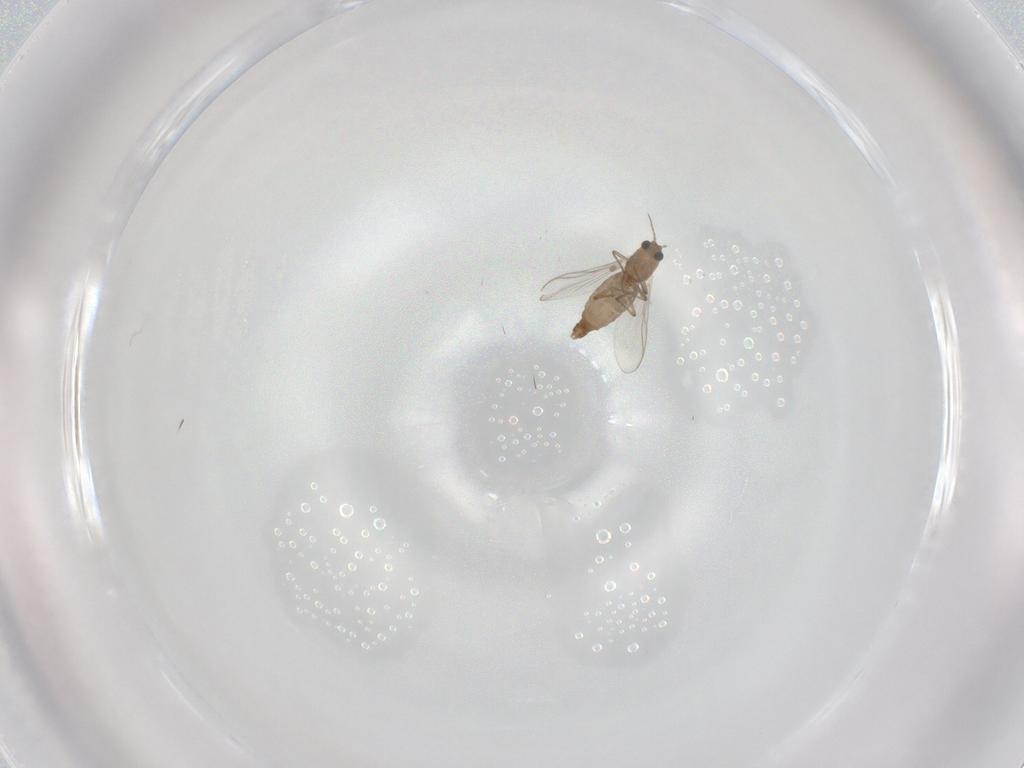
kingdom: Animalia
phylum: Arthropoda
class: Insecta
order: Diptera
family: Chironomidae
